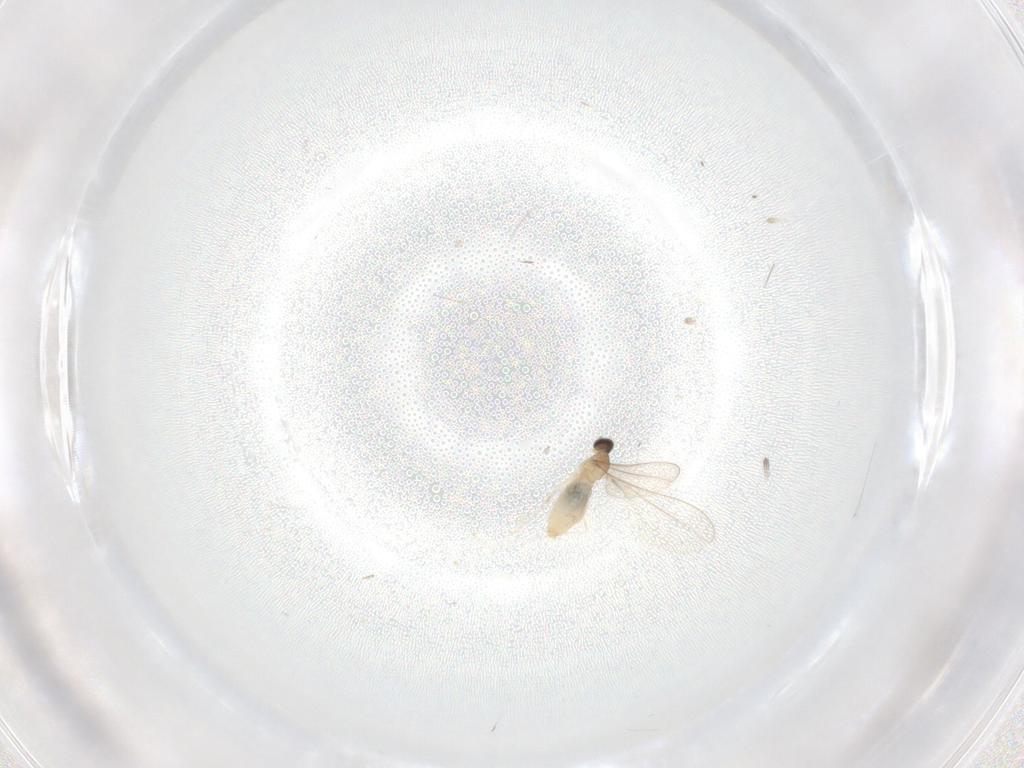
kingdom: Animalia
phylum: Arthropoda
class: Insecta
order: Diptera
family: Cecidomyiidae
